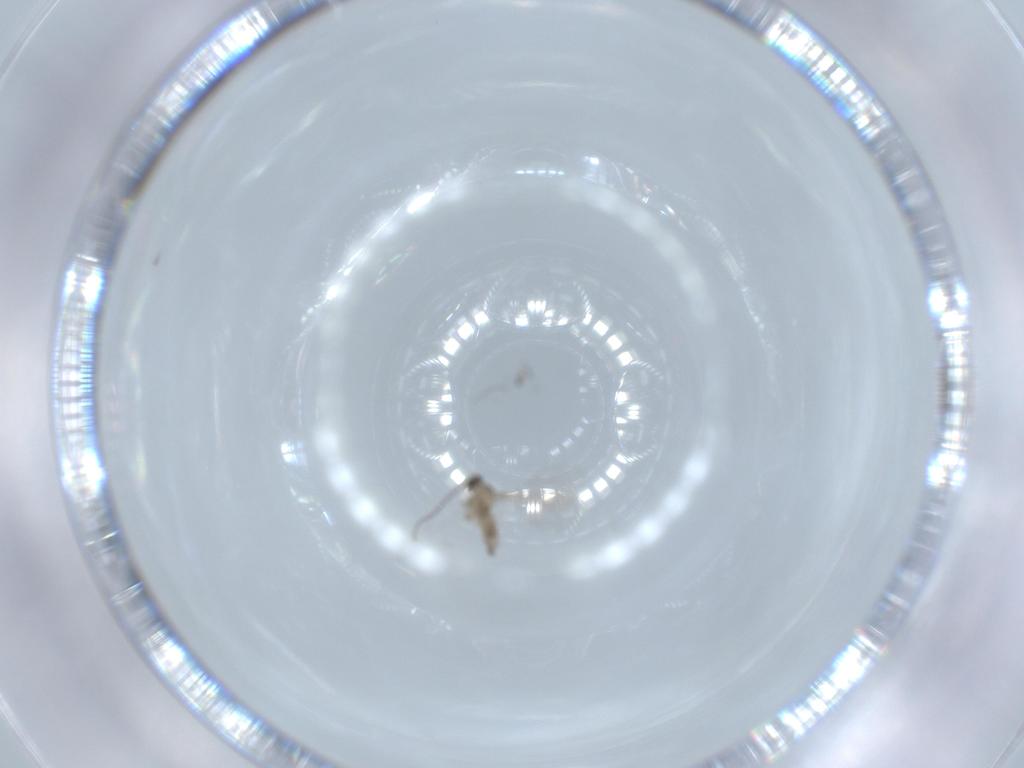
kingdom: Animalia
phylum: Arthropoda
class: Insecta
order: Diptera
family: Cecidomyiidae
